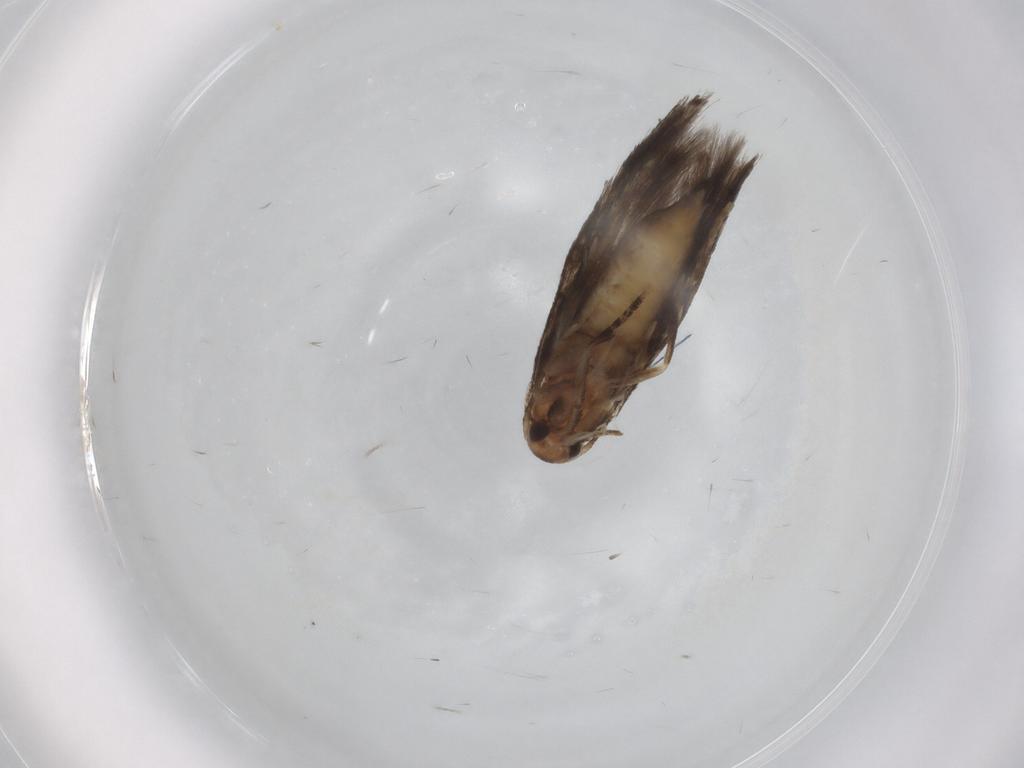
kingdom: Animalia
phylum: Arthropoda
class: Insecta
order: Lepidoptera
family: Elachistidae
